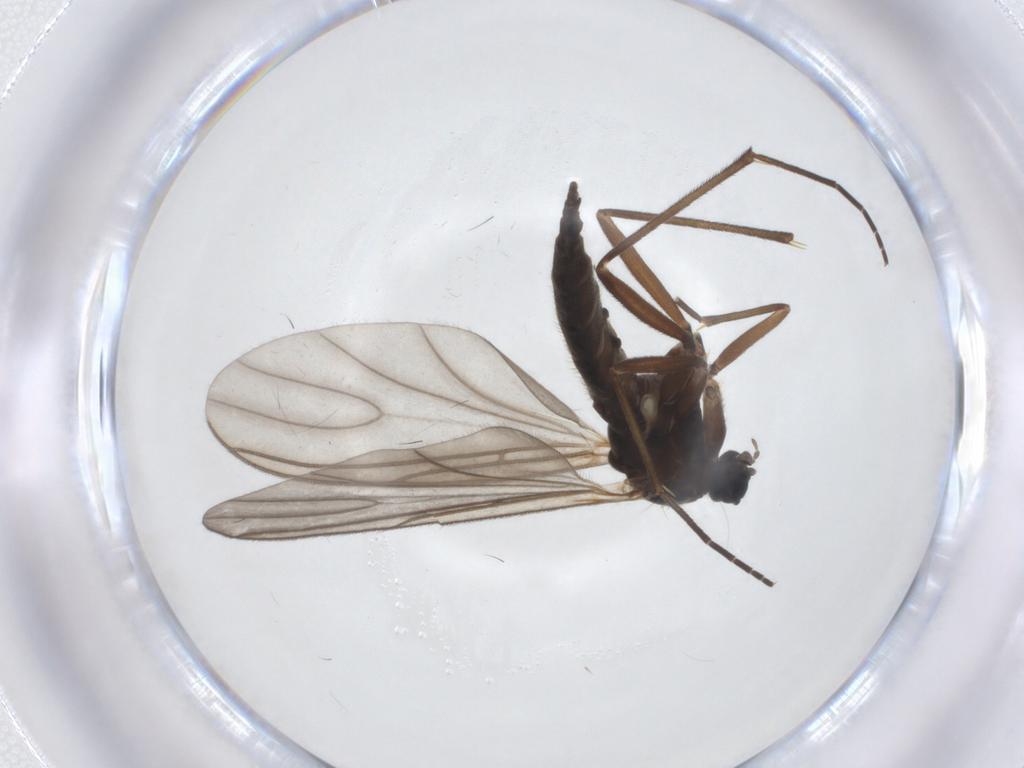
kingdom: Animalia
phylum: Arthropoda
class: Insecta
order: Diptera
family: Sciaridae
